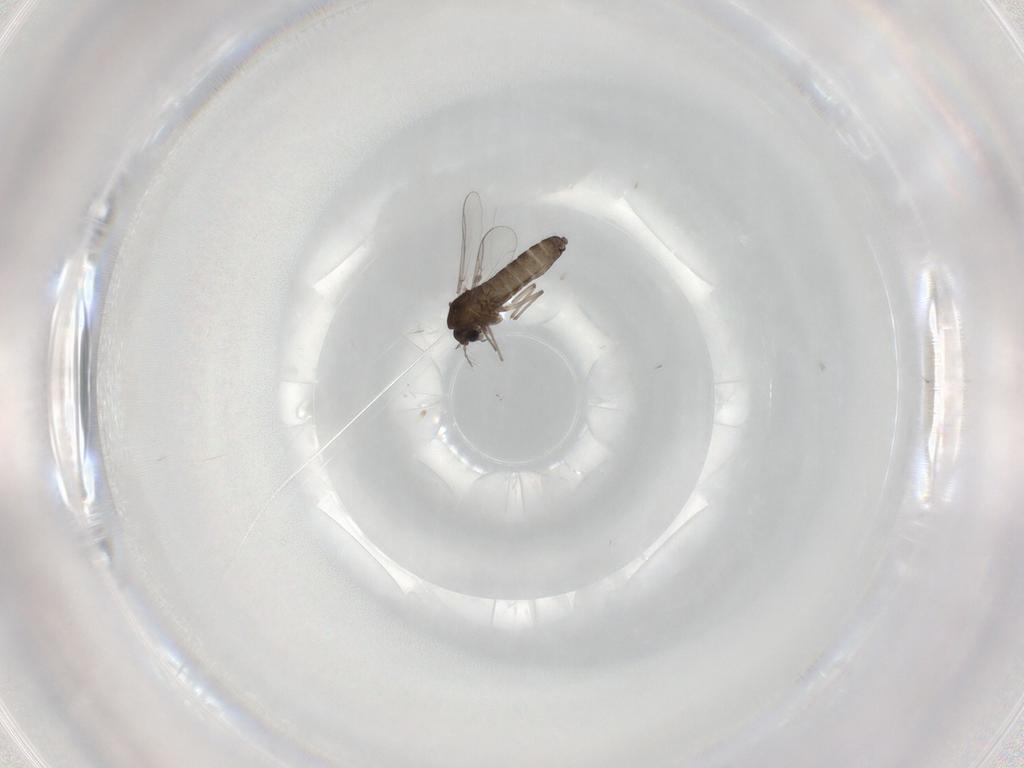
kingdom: Animalia
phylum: Arthropoda
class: Insecta
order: Diptera
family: Chironomidae
